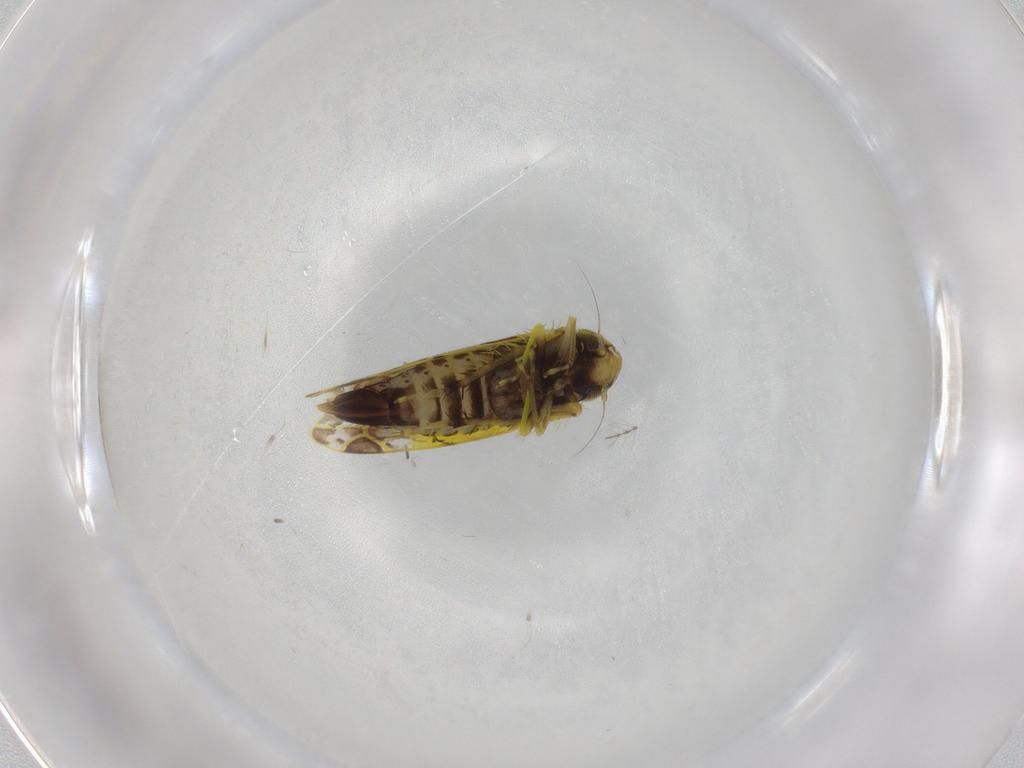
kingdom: Animalia
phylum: Arthropoda
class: Insecta
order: Hemiptera
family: Cicadellidae
